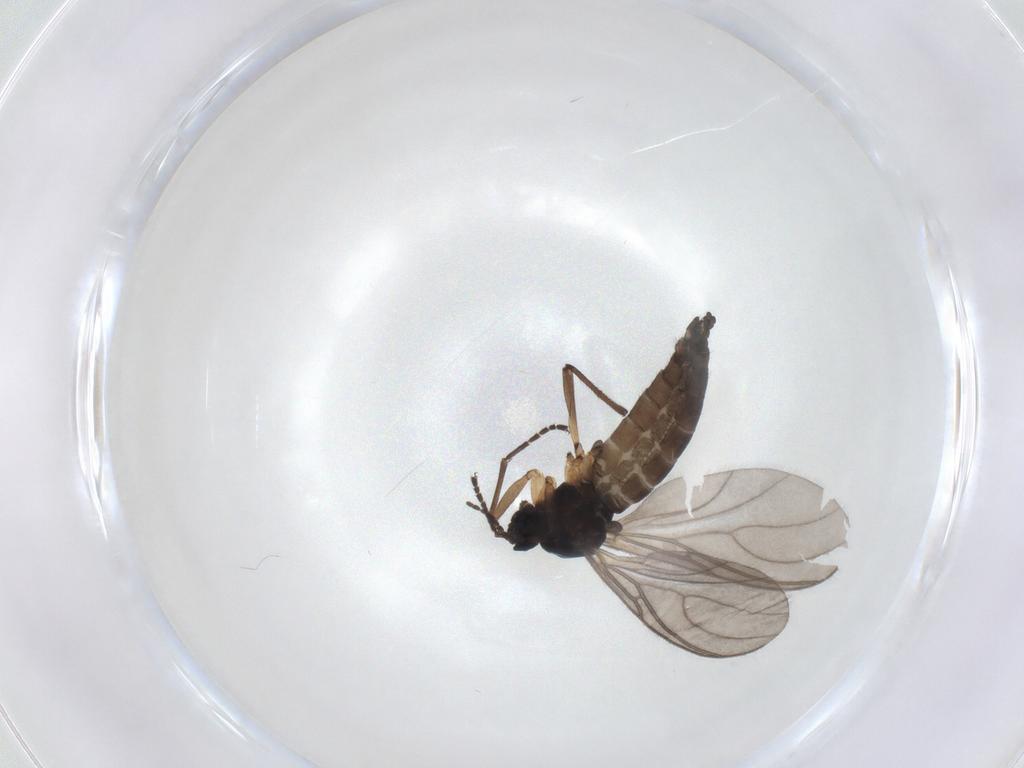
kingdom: Animalia
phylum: Arthropoda
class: Insecta
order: Diptera
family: Sciaridae
